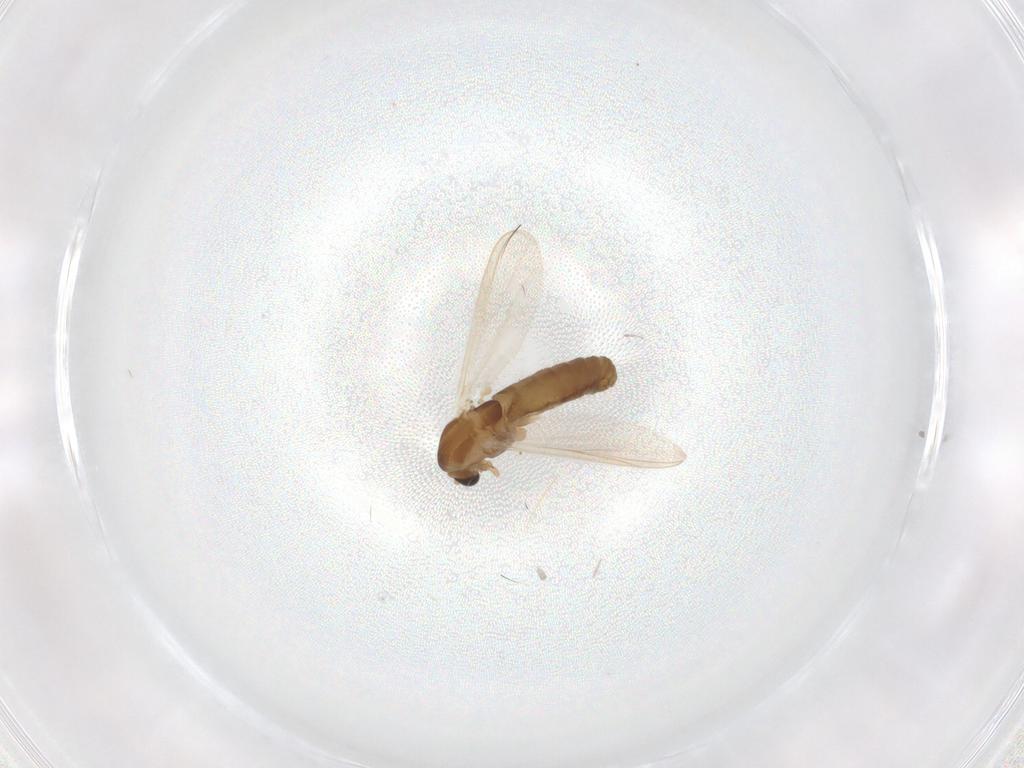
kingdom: Animalia
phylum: Arthropoda
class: Insecta
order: Diptera
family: Chironomidae
